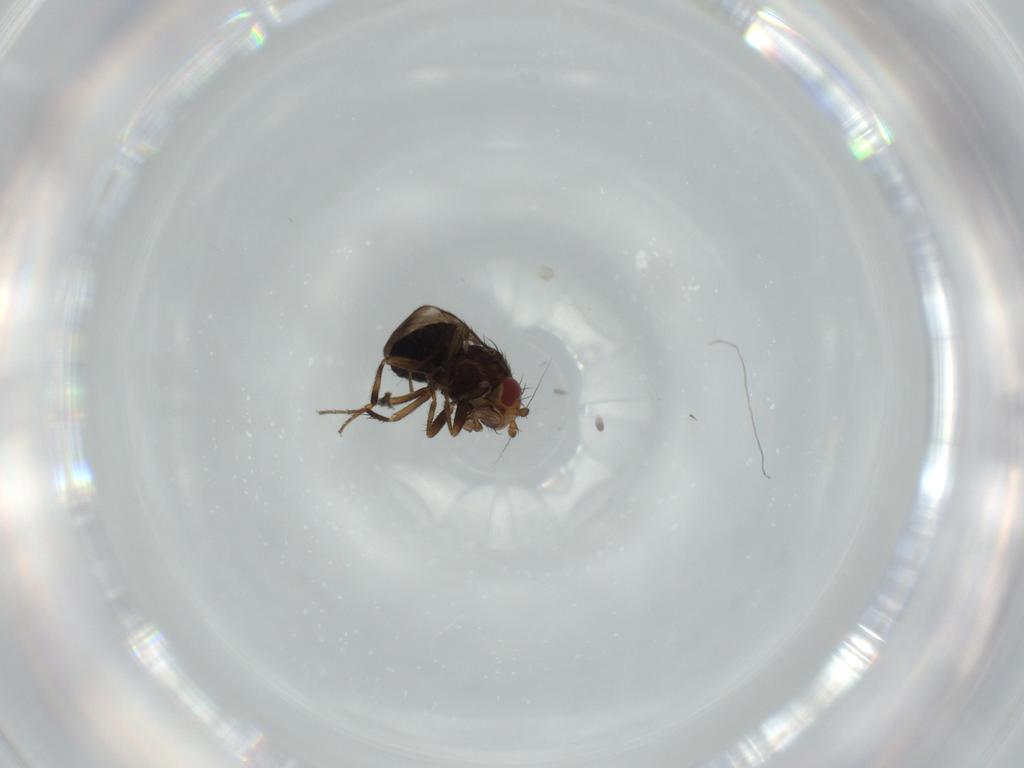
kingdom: Animalia
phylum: Arthropoda
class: Insecta
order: Diptera
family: Sphaeroceridae
